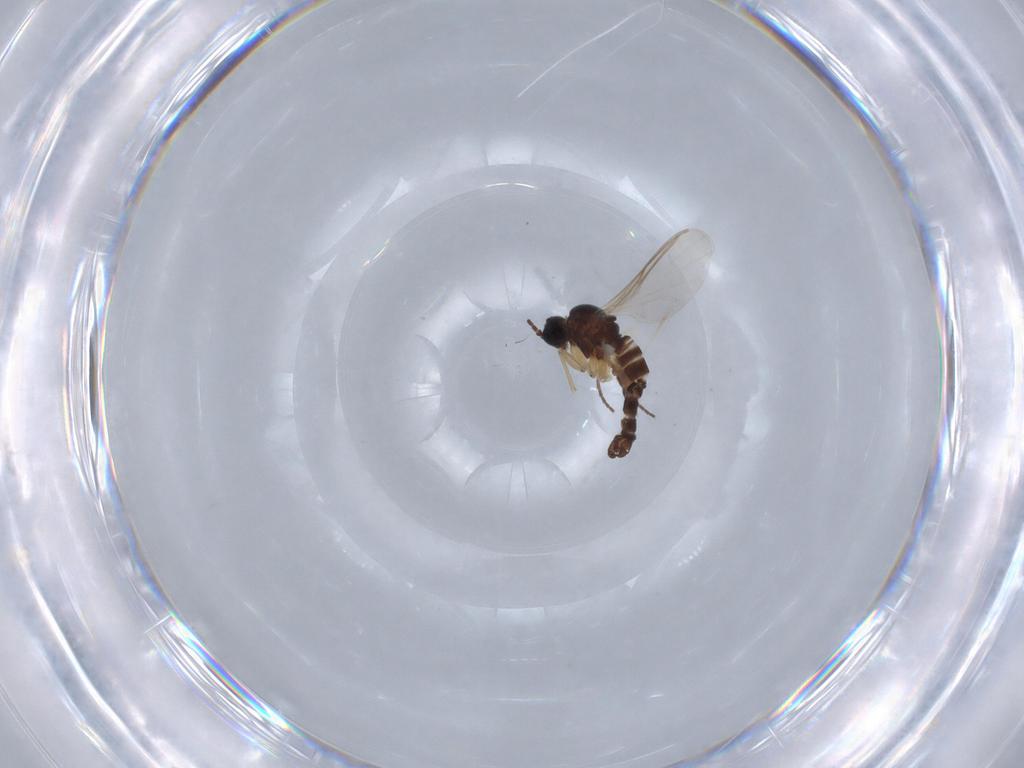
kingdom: Animalia
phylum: Arthropoda
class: Insecta
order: Diptera
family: Sciaridae
